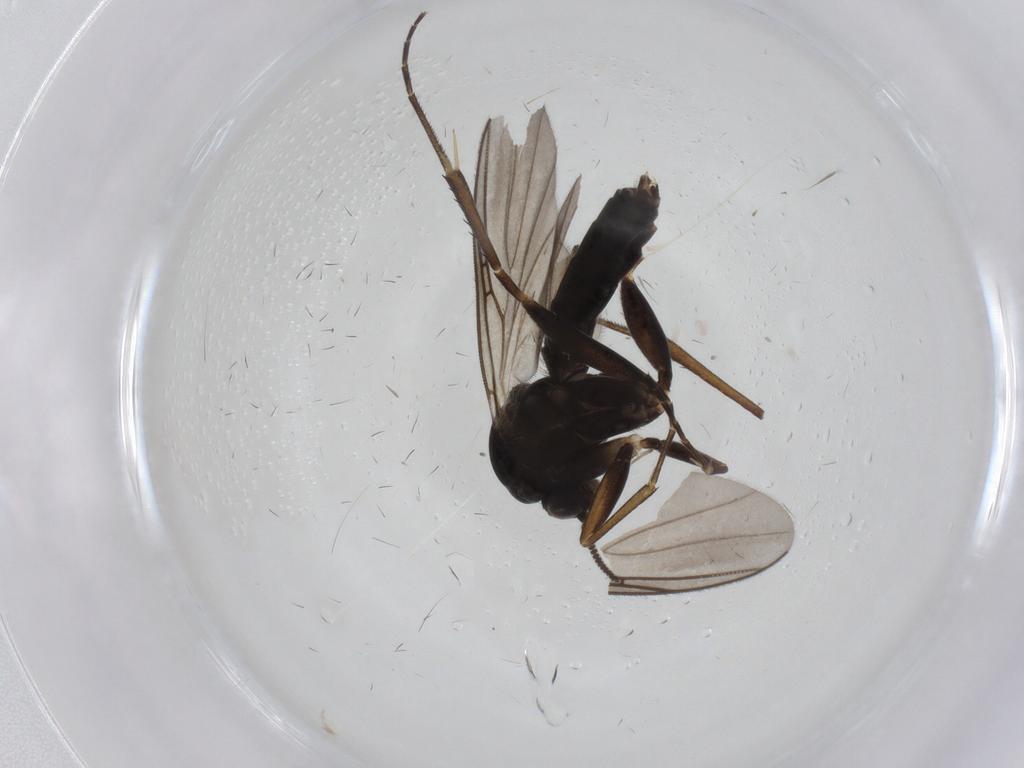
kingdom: Animalia
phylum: Arthropoda
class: Insecta
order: Diptera
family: Mycetophilidae
